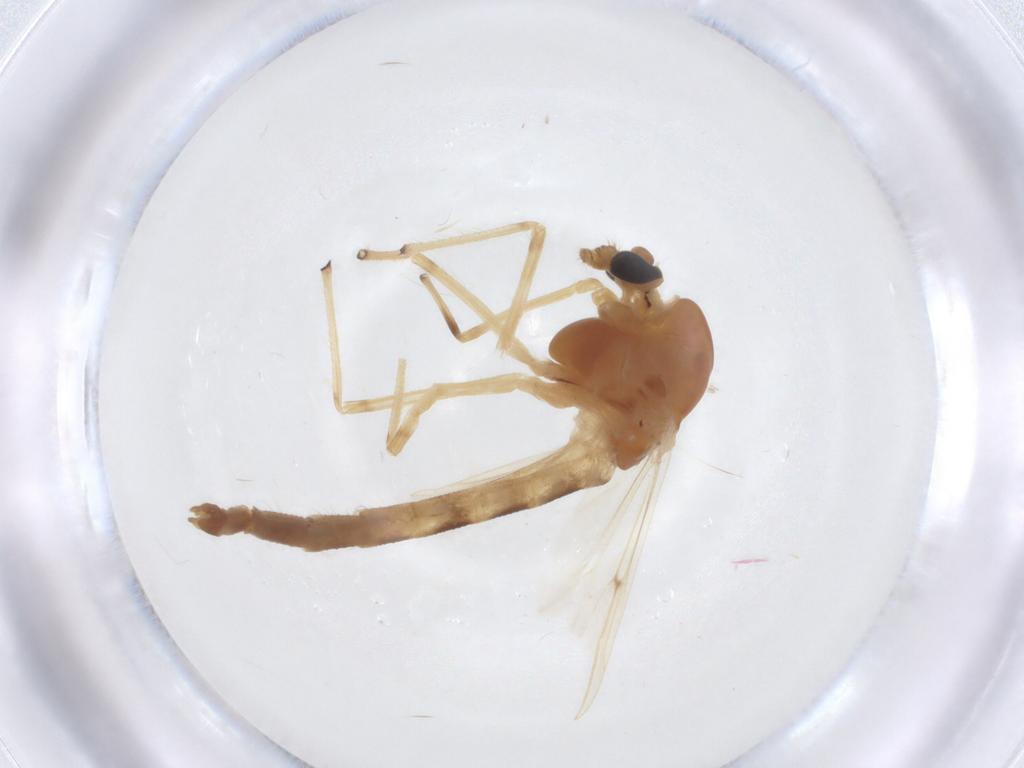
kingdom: Animalia
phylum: Arthropoda
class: Insecta
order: Diptera
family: Chironomidae
